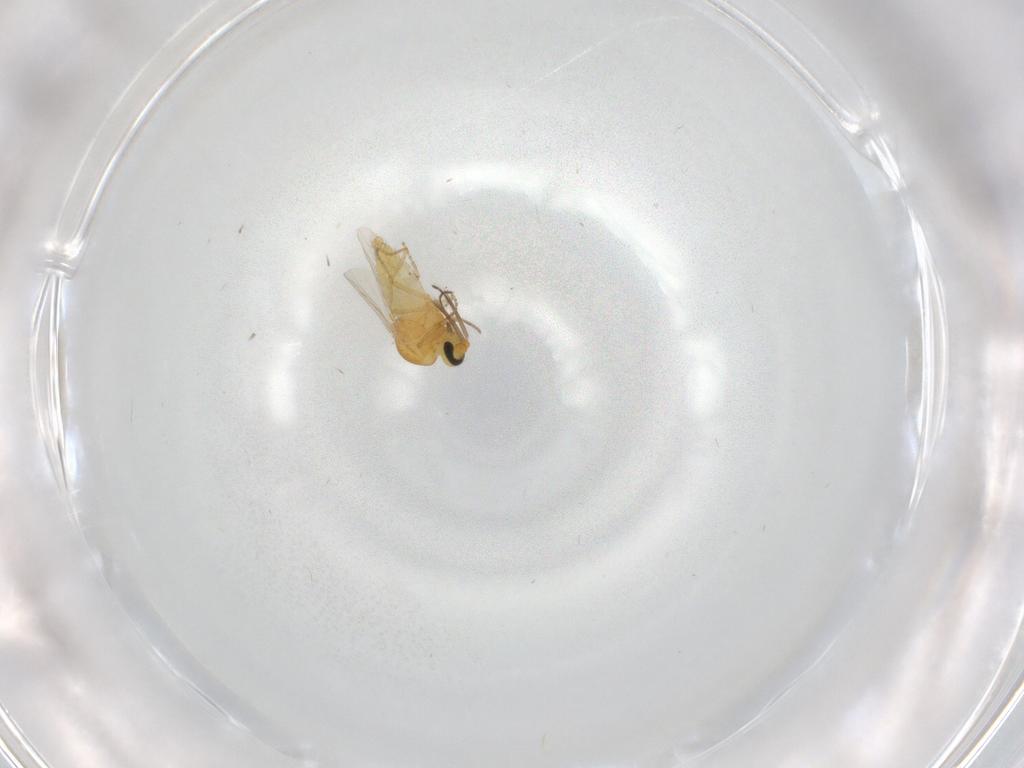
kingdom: Animalia
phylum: Arthropoda
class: Insecta
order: Diptera
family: Ceratopogonidae
